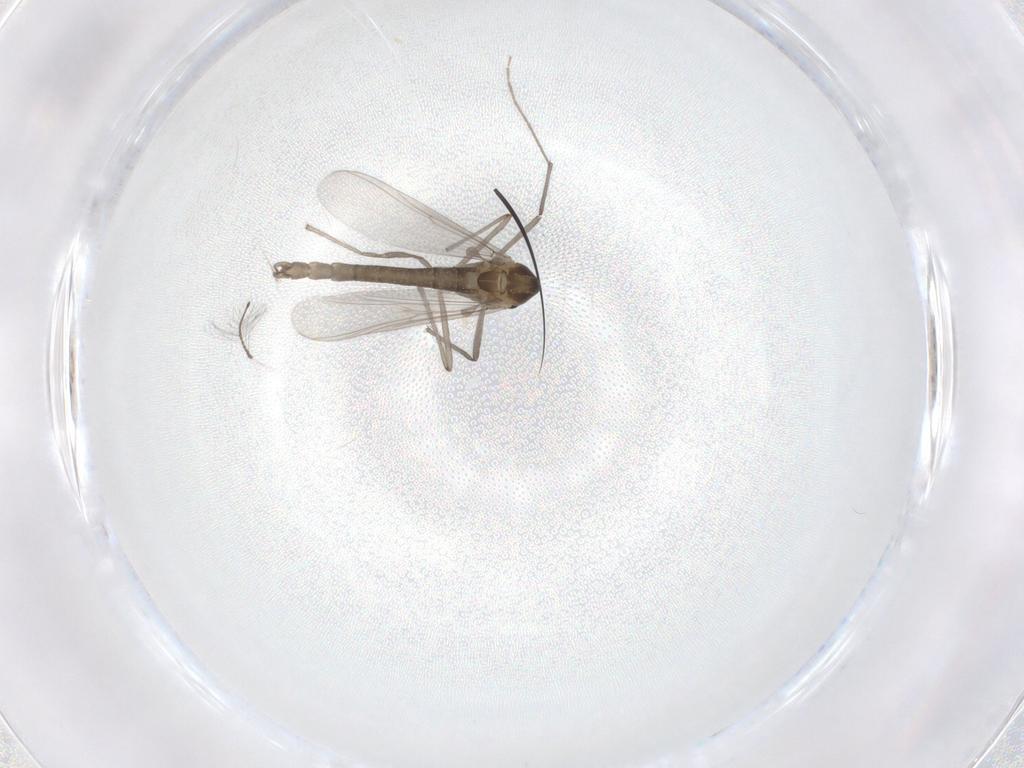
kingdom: Animalia
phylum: Arthropoda
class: Insecta
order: Diptera
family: Chironomidae
